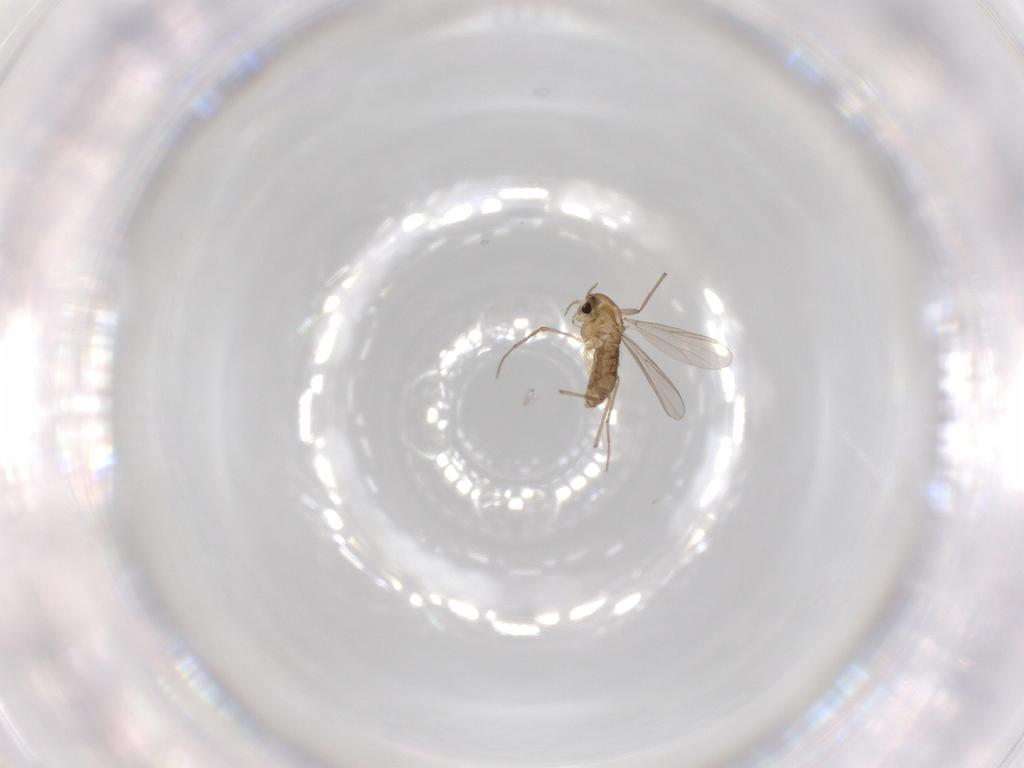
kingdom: Animalia
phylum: Arthropoda
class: Insecta
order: Diptera
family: Chironomidae
